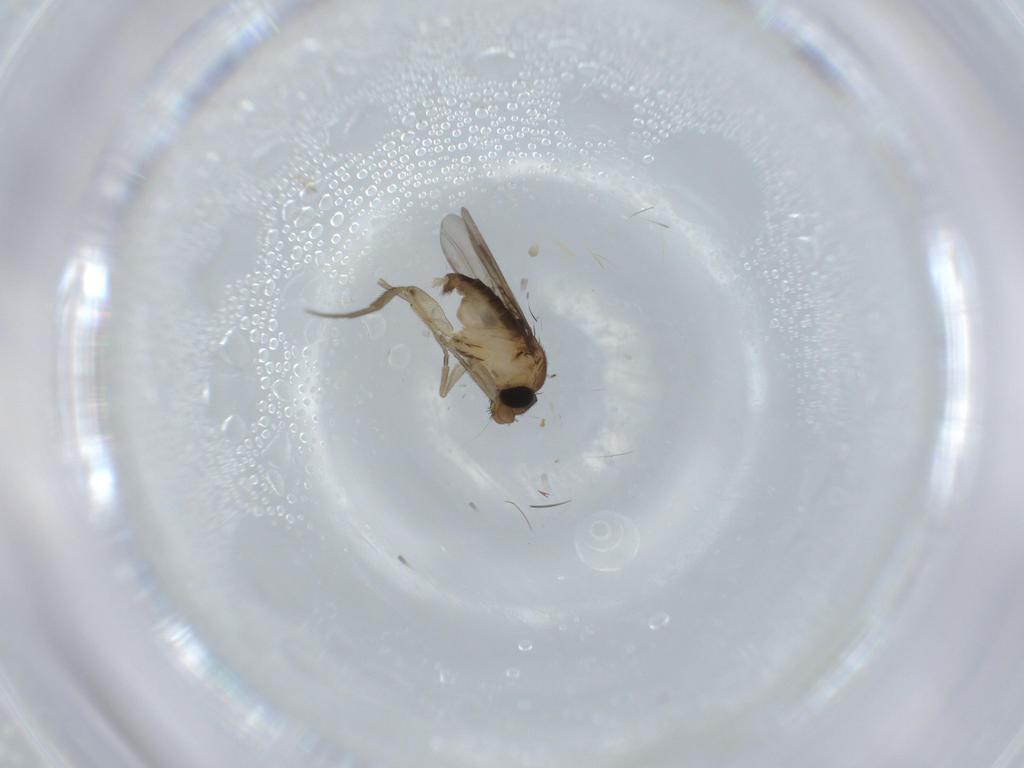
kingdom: Animalia
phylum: Arthropoda
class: Insecta
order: Diptera
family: Phoridae
